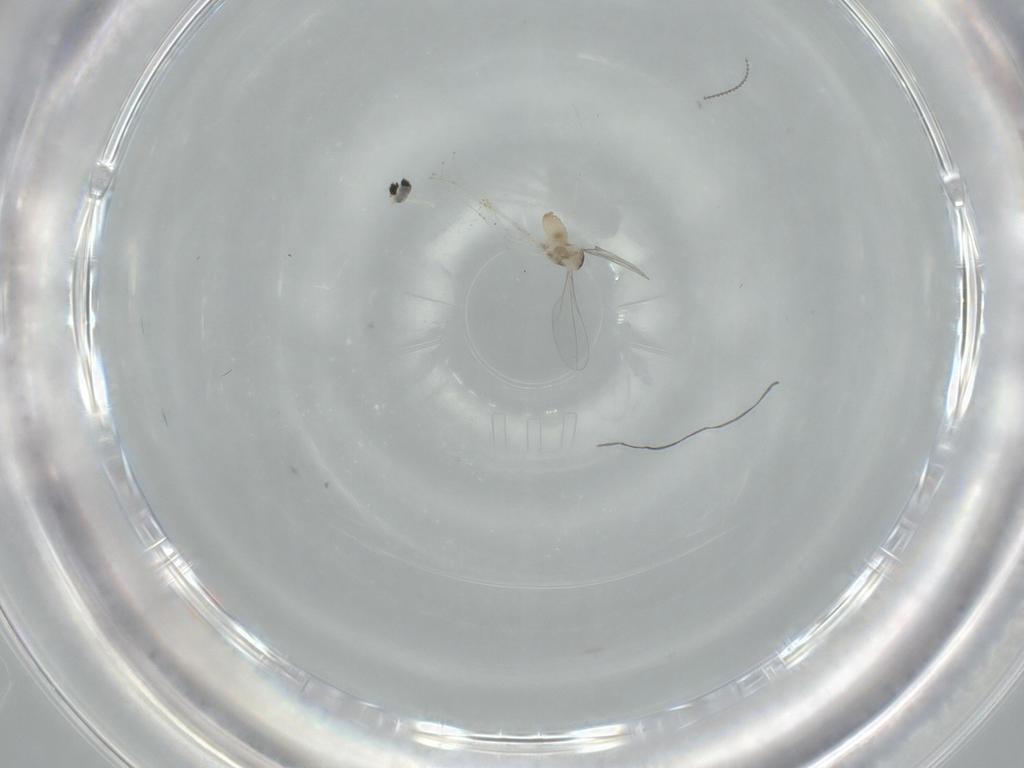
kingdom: Animalia
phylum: Arthropoda
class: Insecta
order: Diptera
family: Cecidomyiidae
